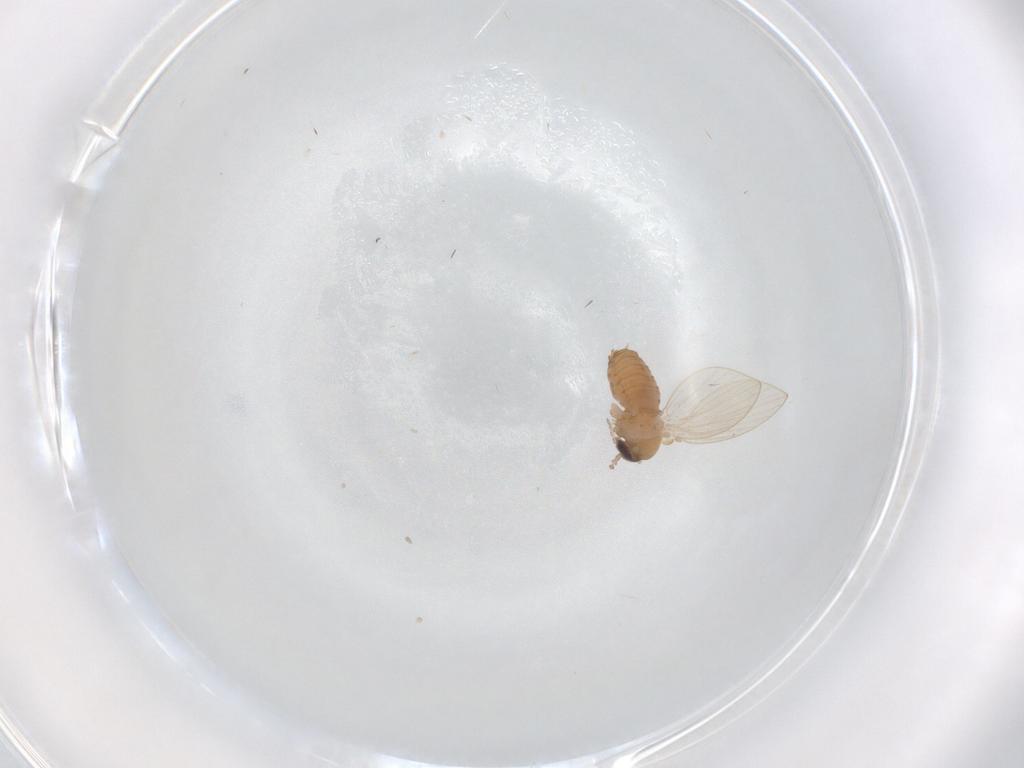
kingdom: Animalia
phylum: Arthropoda
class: Insecta
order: Diptera
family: Psychodidae
